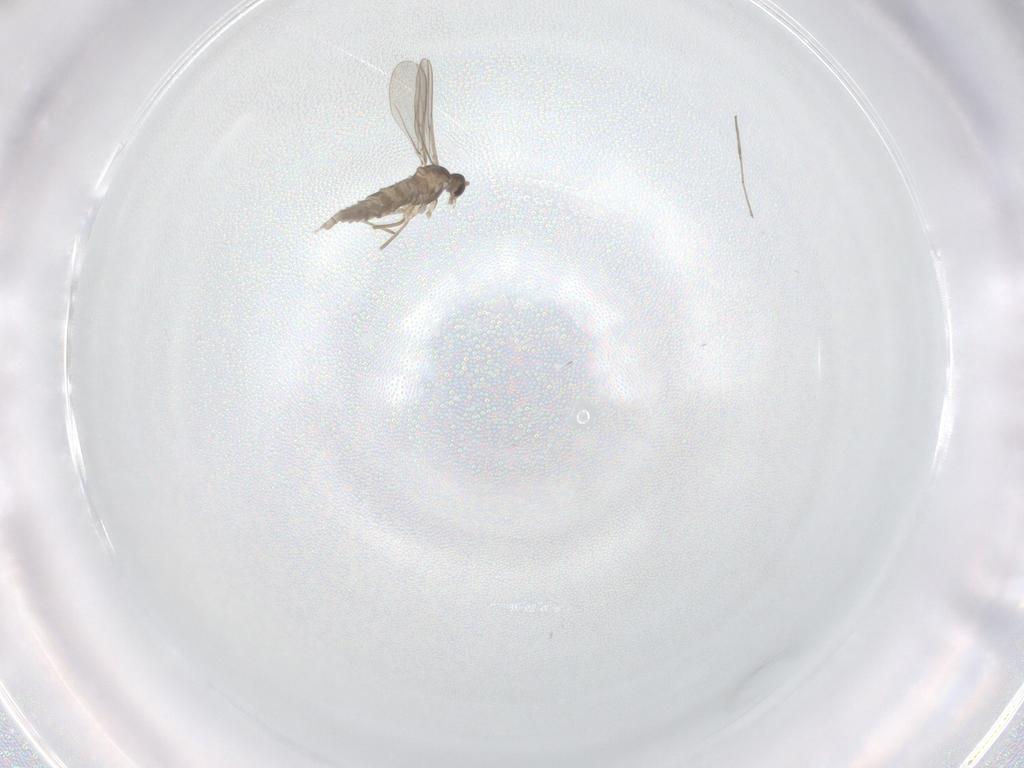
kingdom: Animalia
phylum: Arthropoda
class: Insecta
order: Diptera
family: Cecidomyiidae
